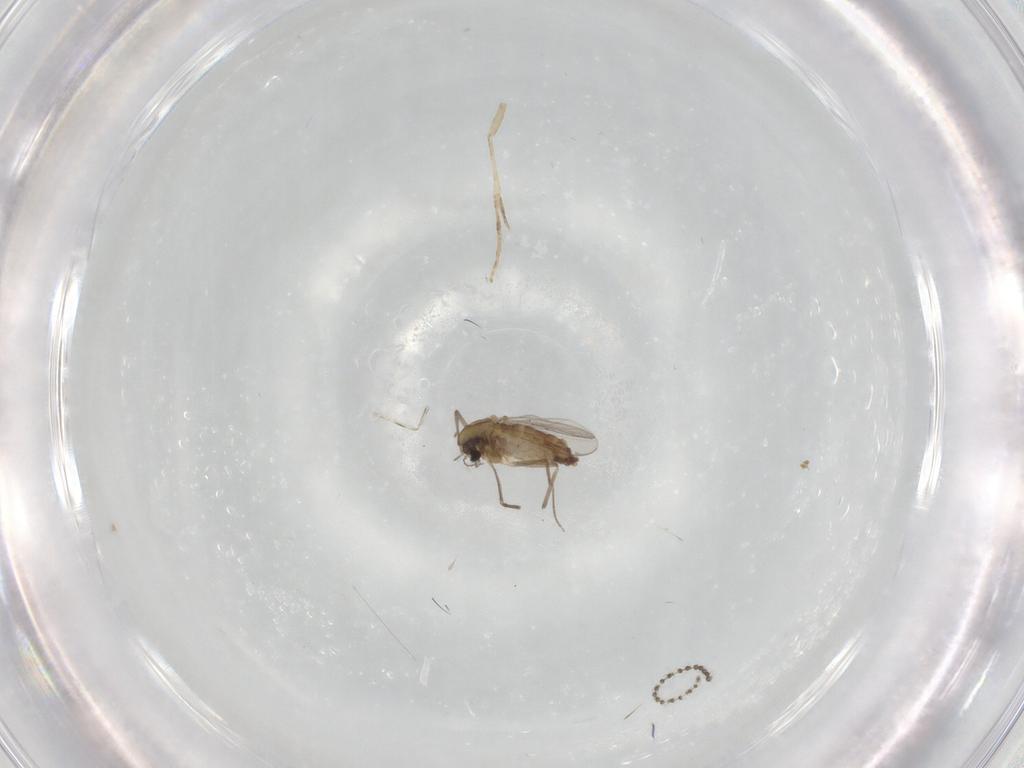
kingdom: Animalia
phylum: Arthropoda
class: Insecta
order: Diptera
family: Chironomidae
